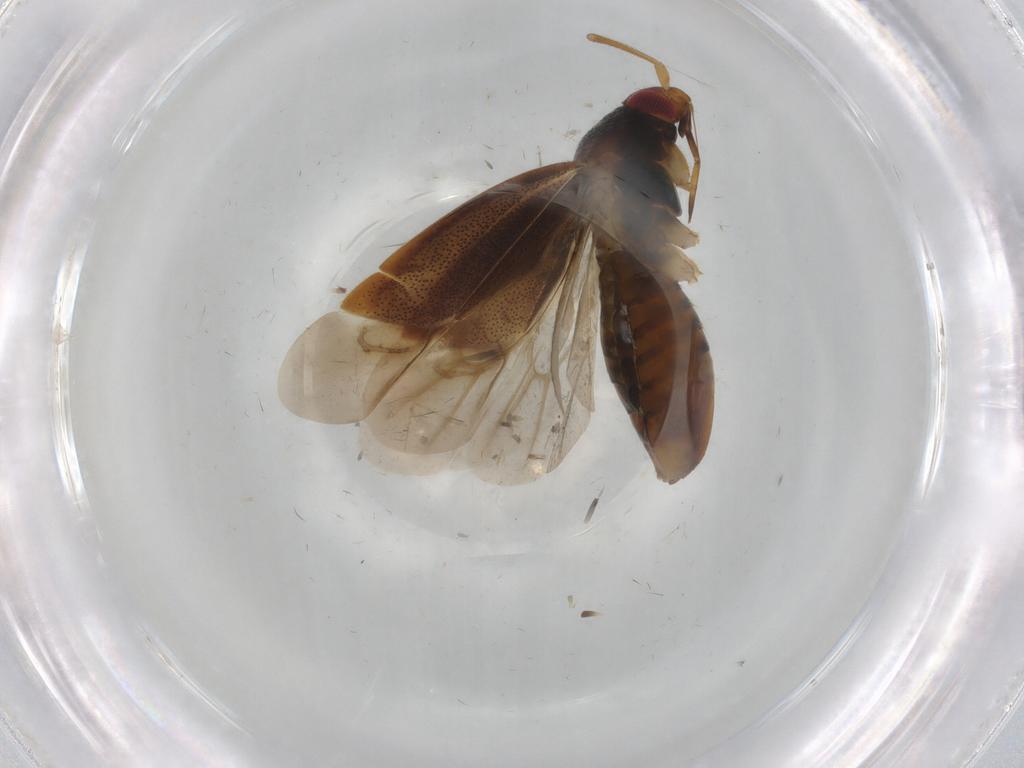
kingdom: Animalia
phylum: Arthropoda
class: Insecta
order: Hemiptera
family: Miridae
